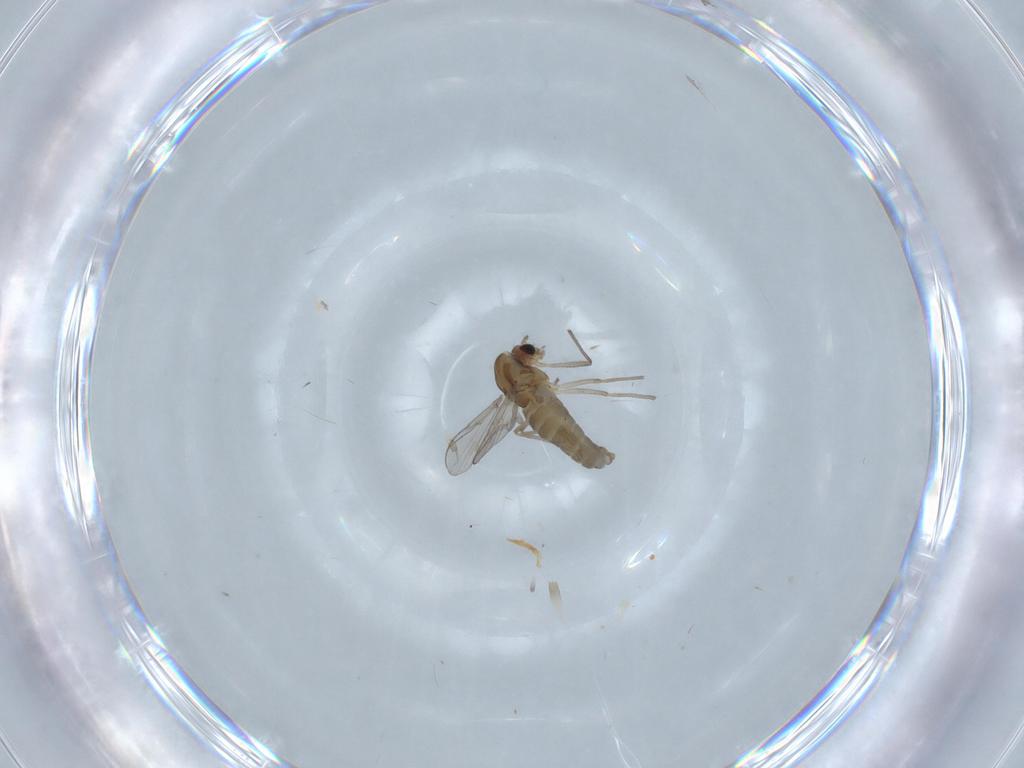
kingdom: Animalia
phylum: Arthropoda
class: Insecta
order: Diptera
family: Chironomidae
